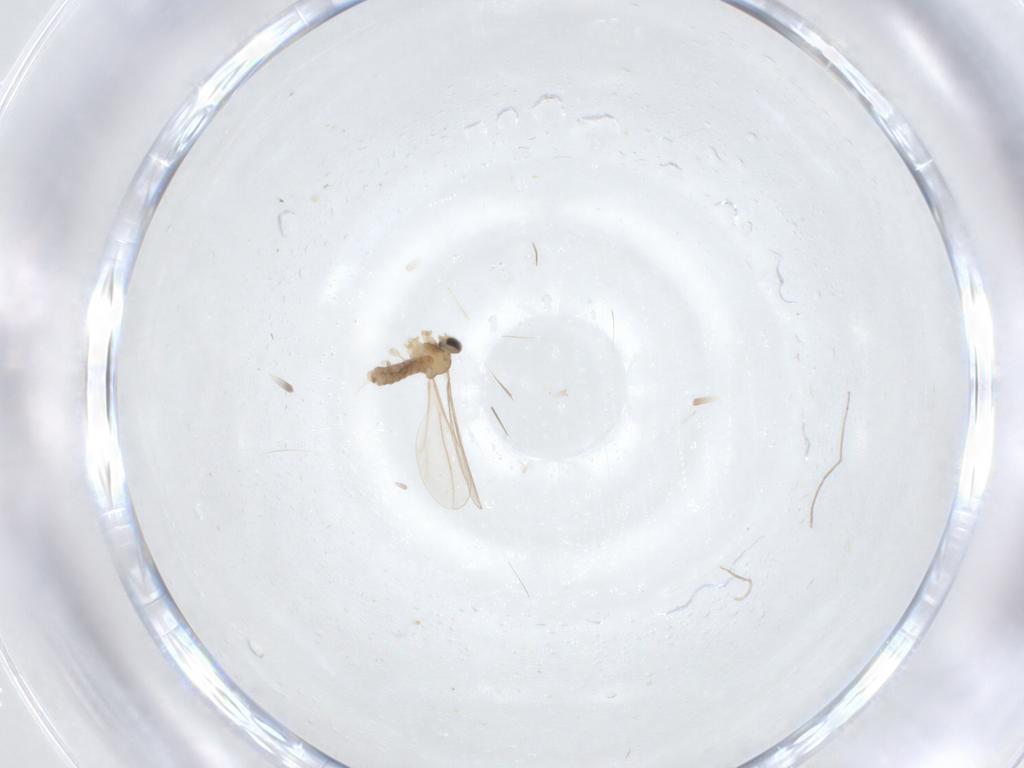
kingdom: Animalia
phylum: Arthropoda
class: Insecta
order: Diptera
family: Cecidomyiidae
